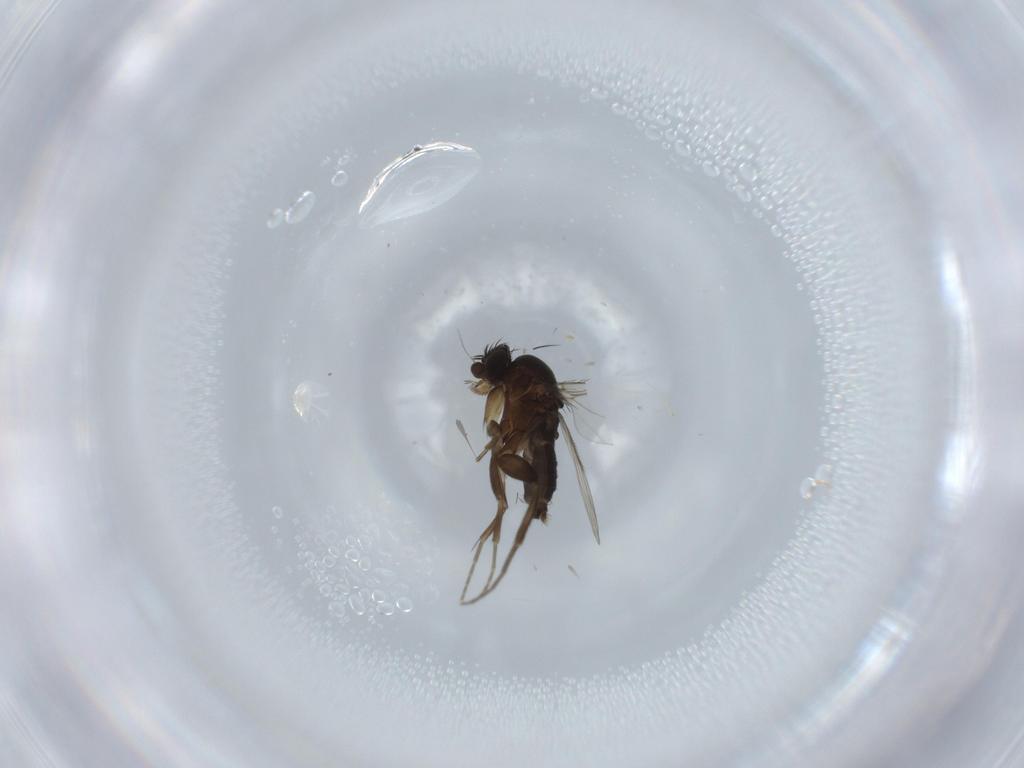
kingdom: Animalia
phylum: Arthropoda
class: Insecta
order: Diptera
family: Phoridae
